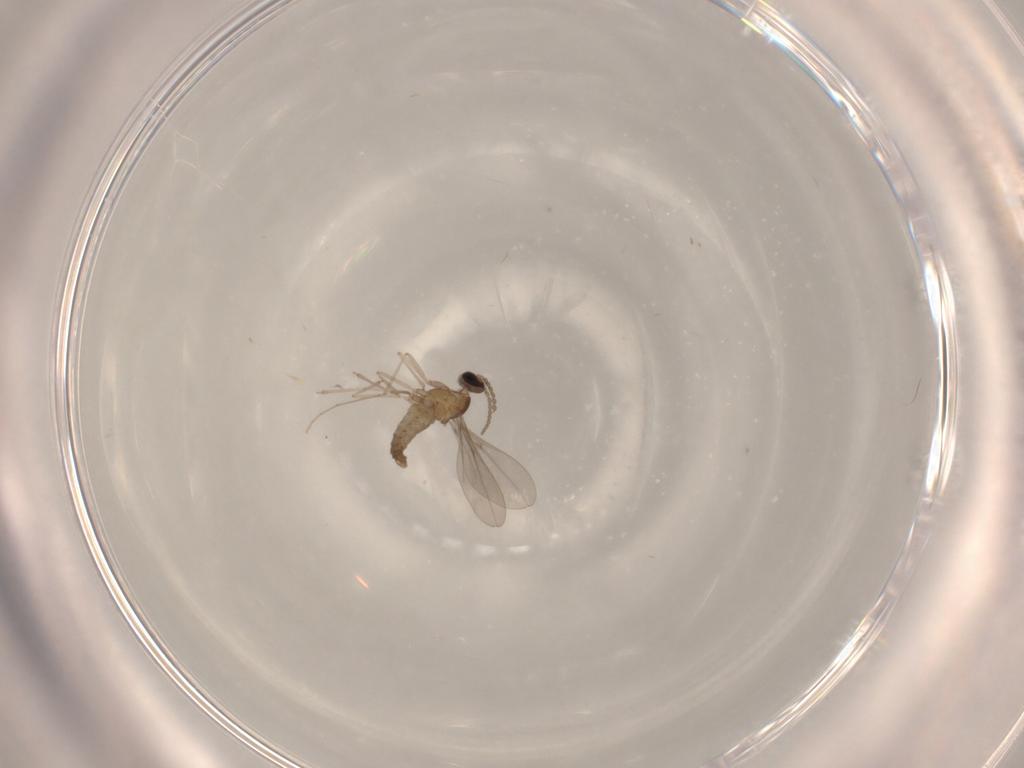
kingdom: Animalia
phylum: Arthropoda
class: Insecta
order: Diptera
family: Cecidomyiidae
